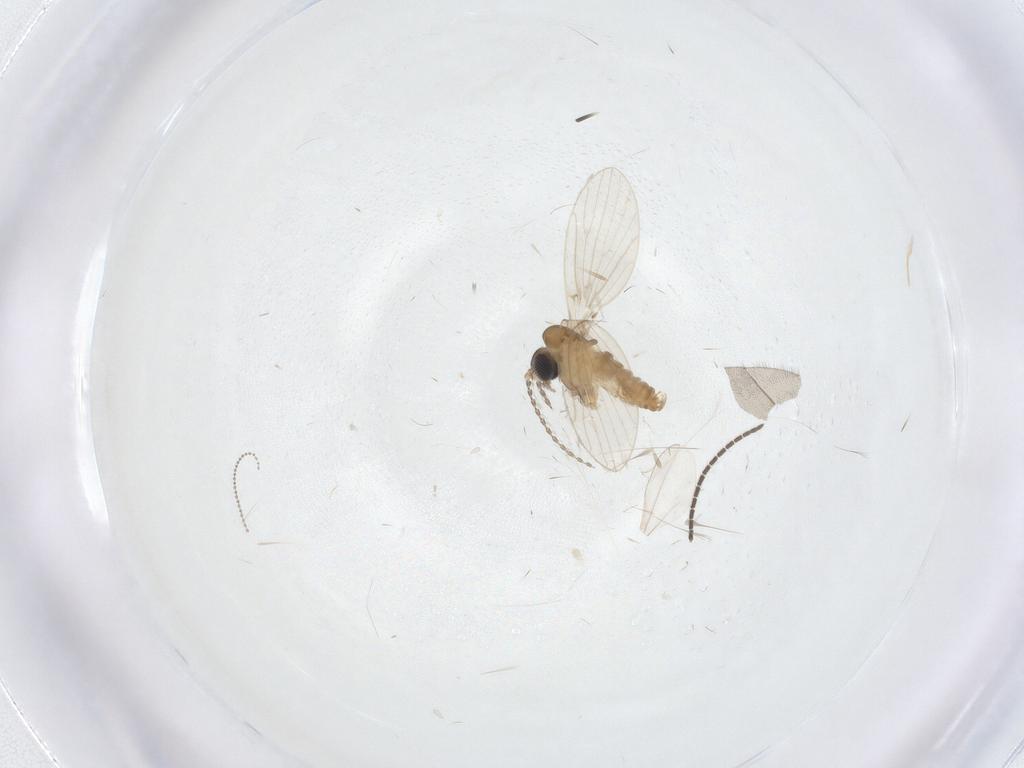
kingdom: Animalia
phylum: Arthropoda
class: Insecta
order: Diptera
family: Cecidomyiidae
